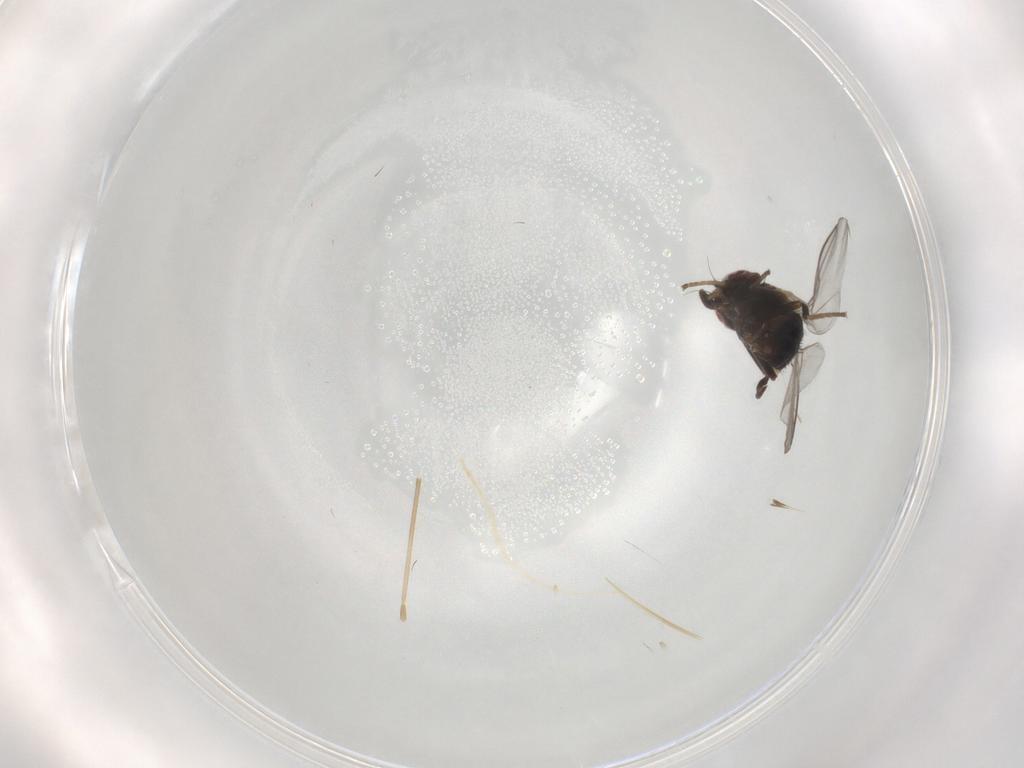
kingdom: Animalia
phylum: Arthropoda
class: Insecta
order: Diptera
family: Agromyzidae
